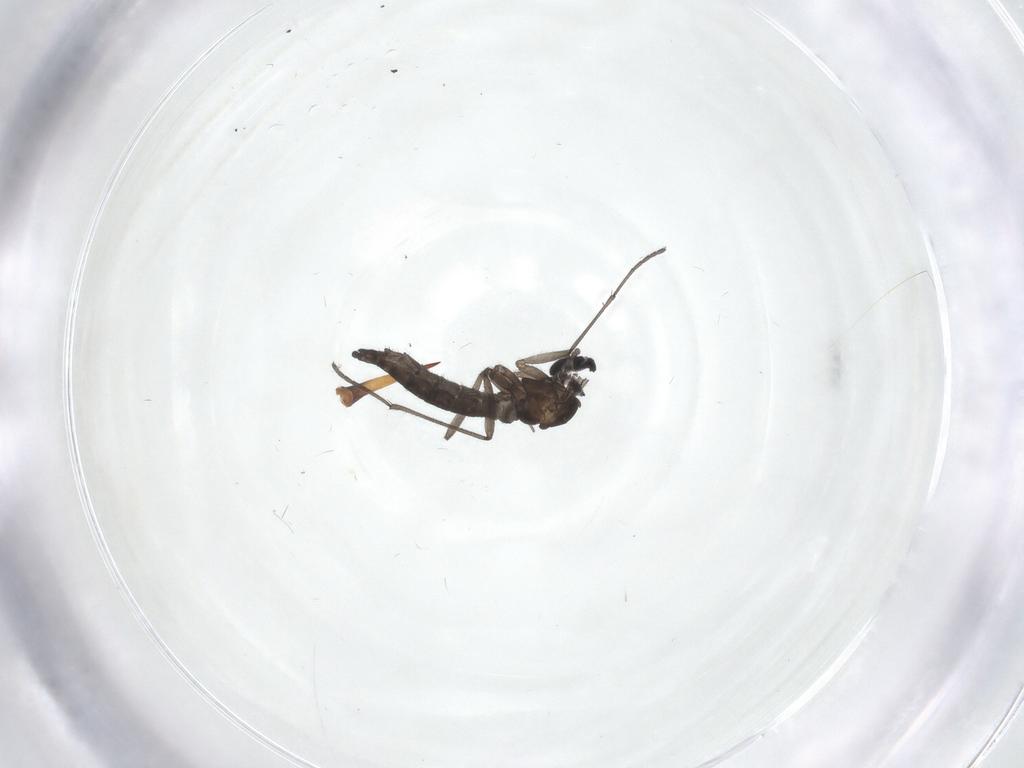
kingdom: Animalia
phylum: Arthropoda
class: Insecta
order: Diptera
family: Sciaridae
